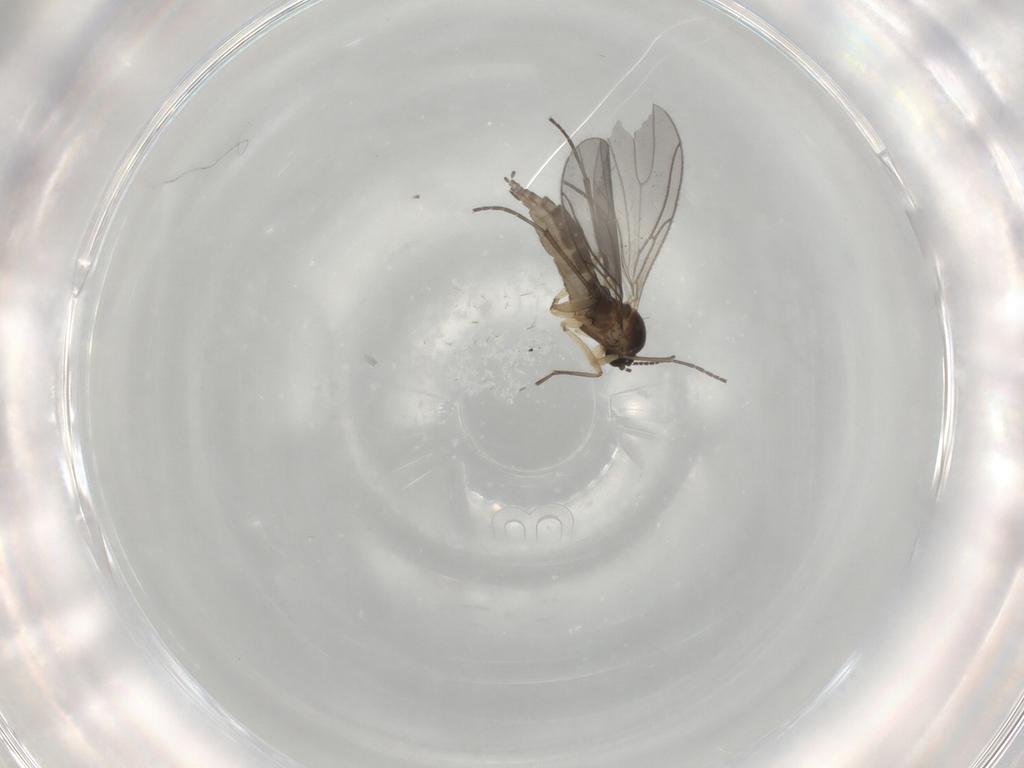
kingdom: Animalia
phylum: Arthropoda
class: Insecta
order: Diptera
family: Sciaridae
